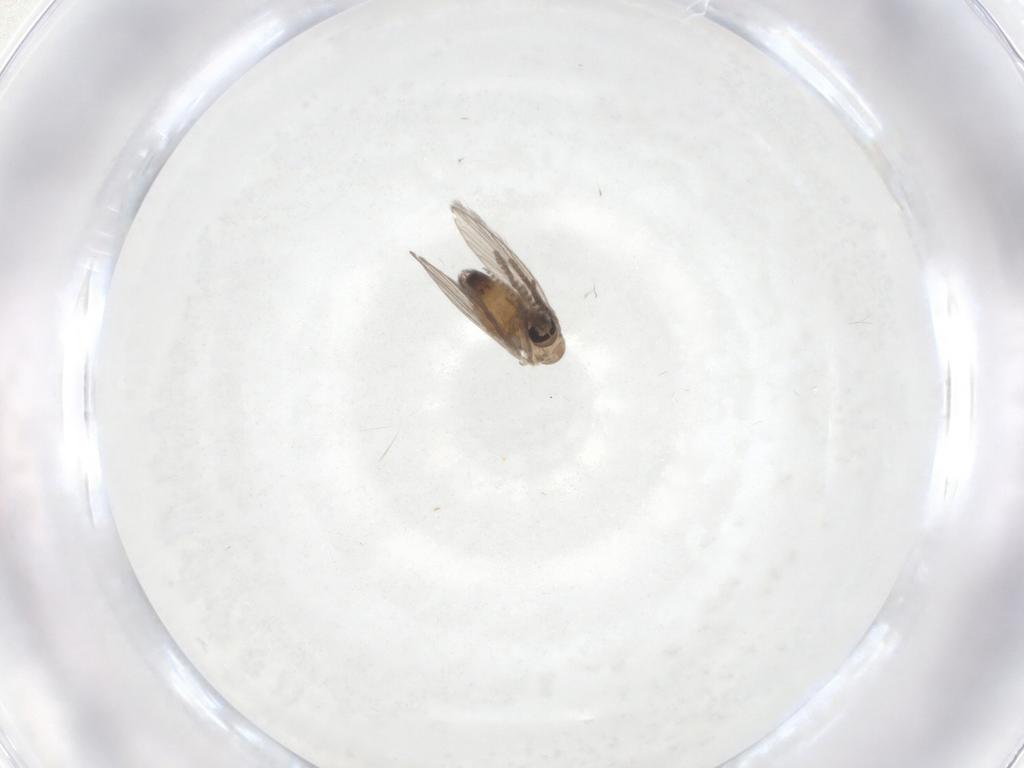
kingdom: Animalia
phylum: Arthropoda
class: Insecta
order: Diptera
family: Psychodidae
